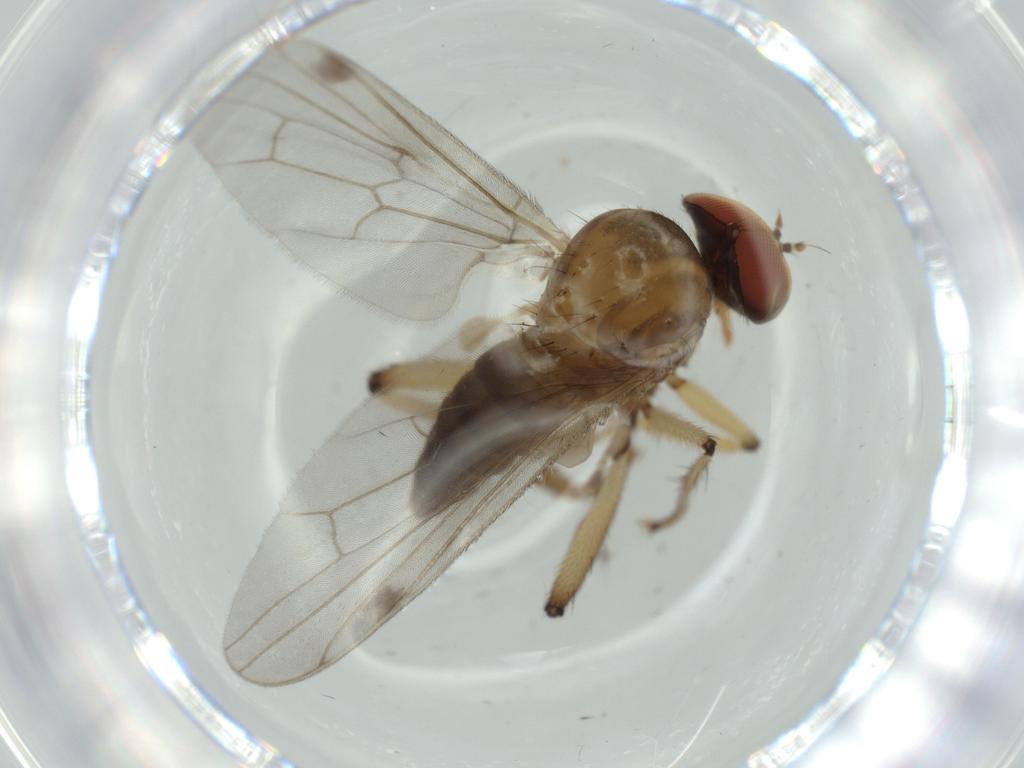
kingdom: Animalia
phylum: Arthropoda
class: Insecta
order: Diptera
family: Hybotidae
